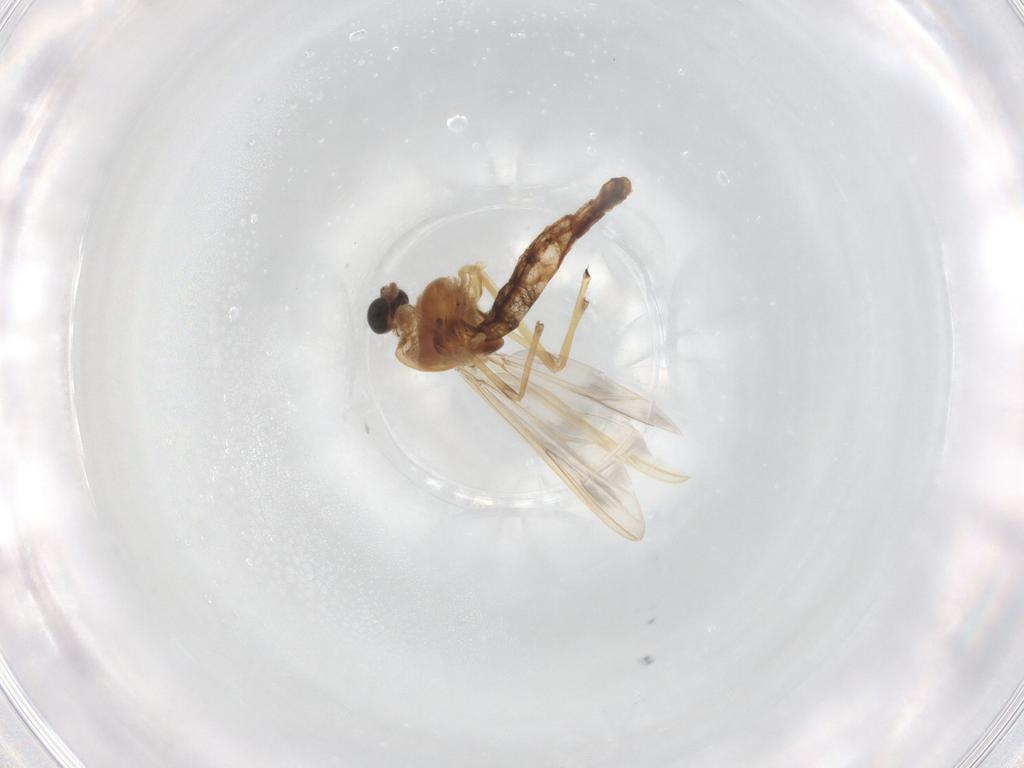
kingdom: Animalia
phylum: Arthropoda
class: Insecta
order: Diptera
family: Chironomidae
